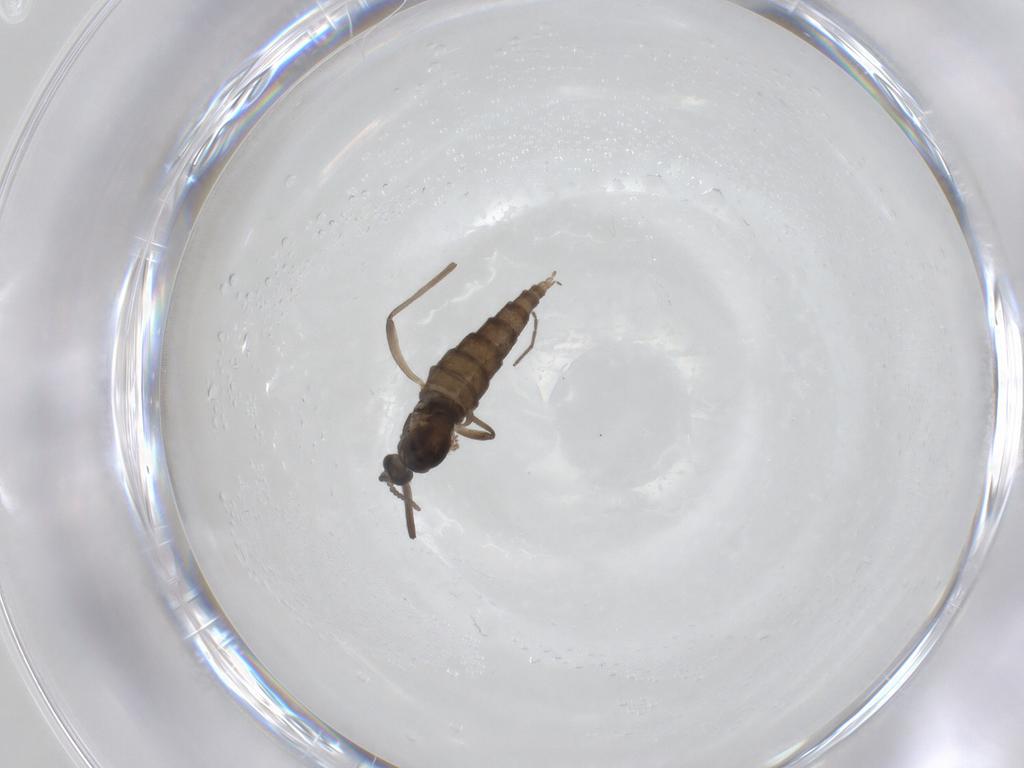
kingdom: Animalia
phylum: Arthropoda
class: Insecta
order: Diptera
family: Cecidomyiidae
